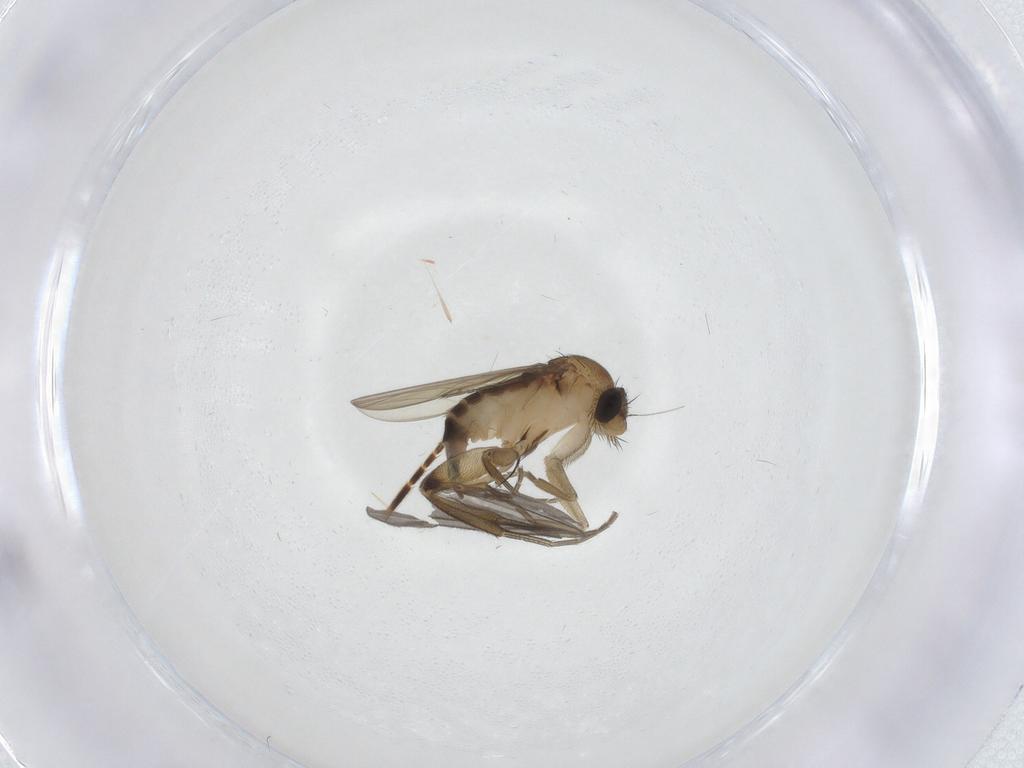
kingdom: Animalia
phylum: Arthropoda
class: Insecta
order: Diptera
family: Phoridae
